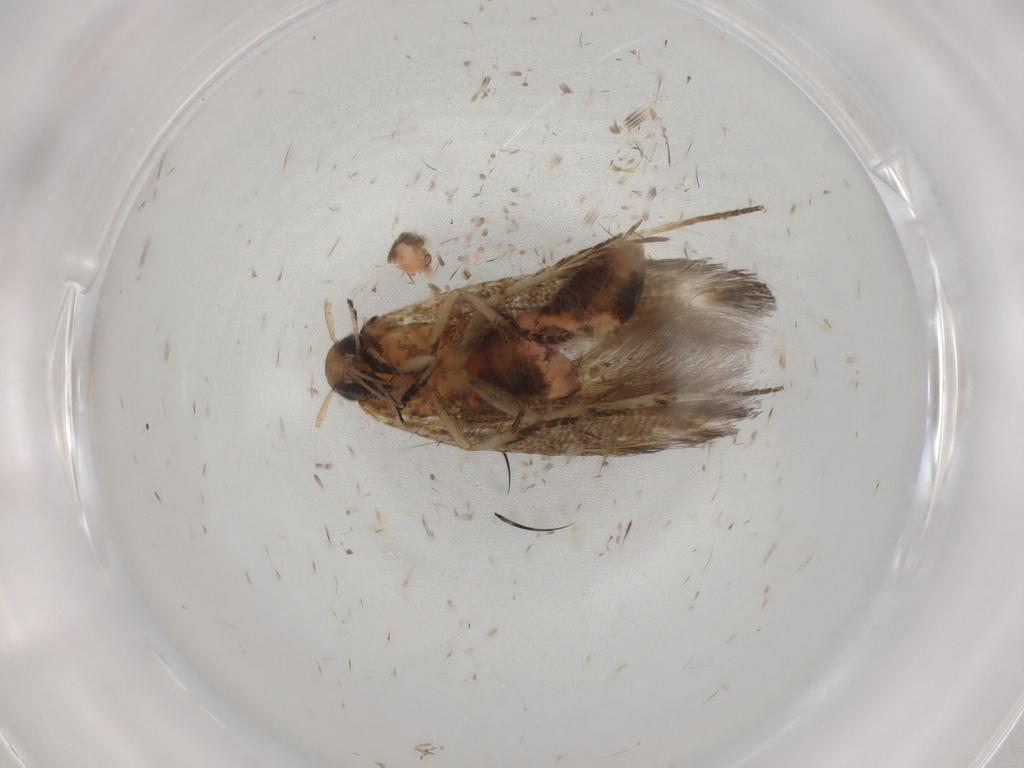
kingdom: Animalia
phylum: Arthropoda
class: Insecta
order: Lepidoptera
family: Cosmopterigidae
